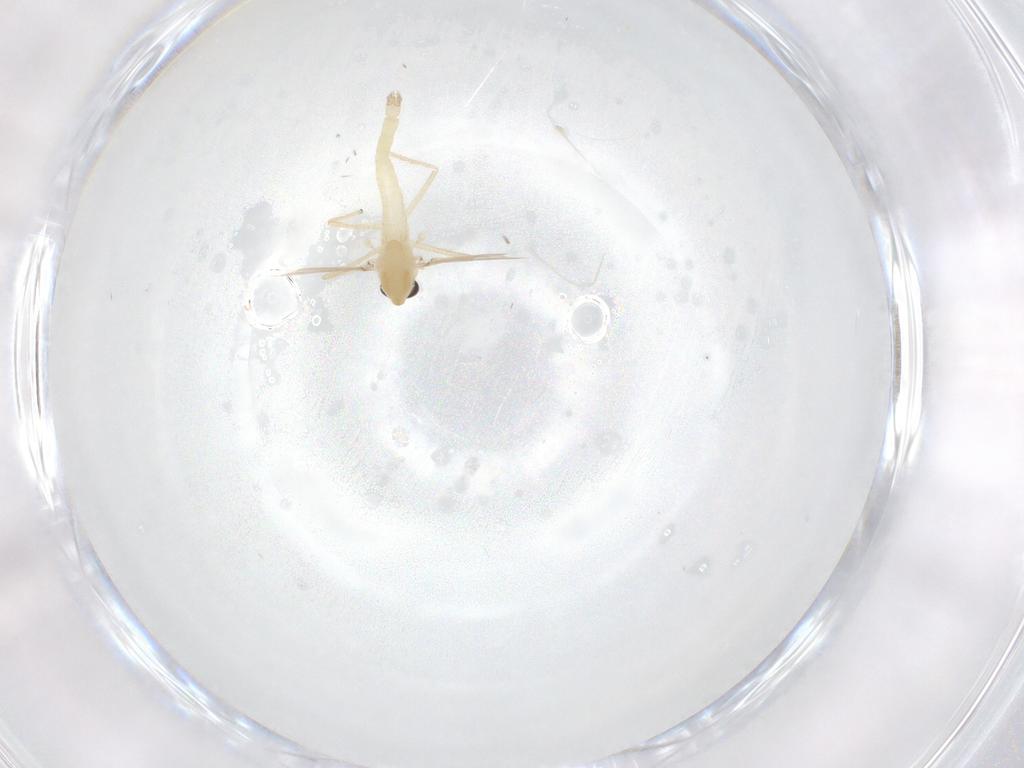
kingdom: Animalia
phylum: Arthropoda
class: Insecta
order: Diptera
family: Chironomidae
